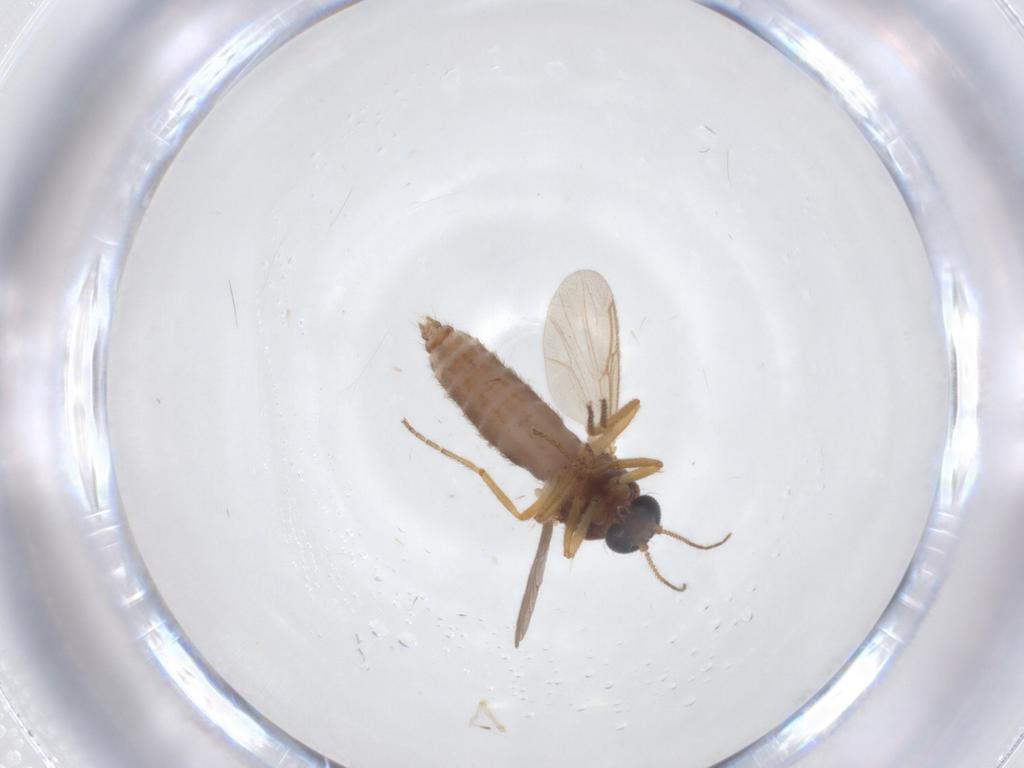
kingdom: Animalia
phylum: Arthropoda
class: Insecta
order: Diptera
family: Ceratopogonidae
